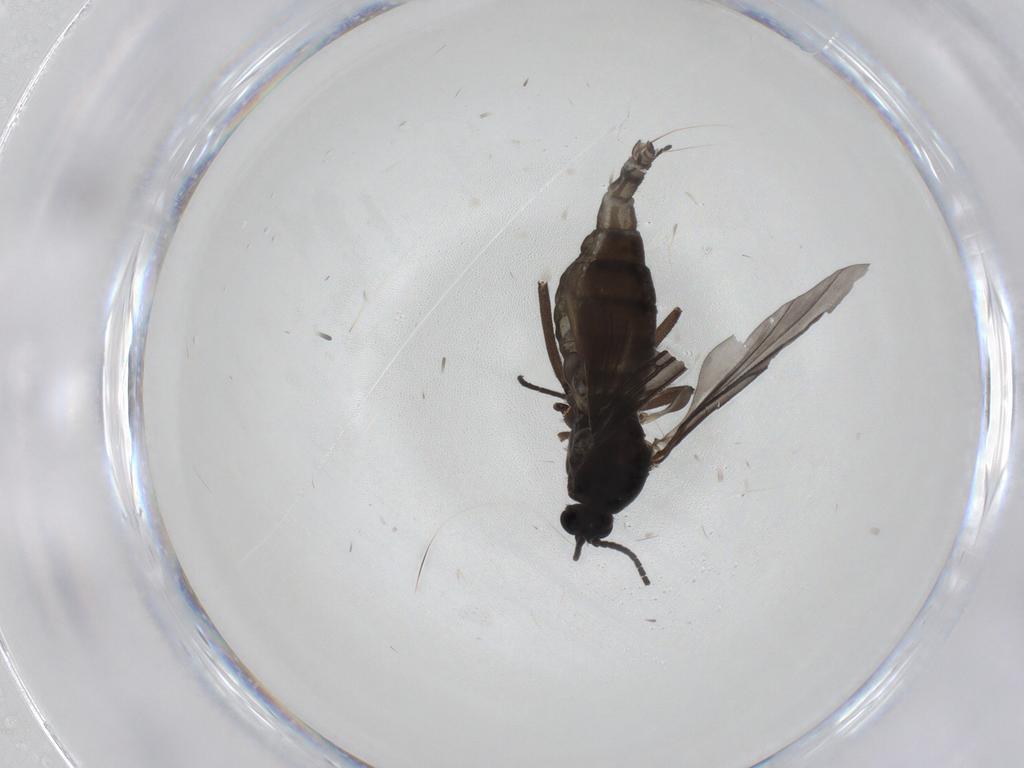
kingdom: Animalia
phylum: Arthropoda
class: Insecta
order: Diptera
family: Sciaridae
